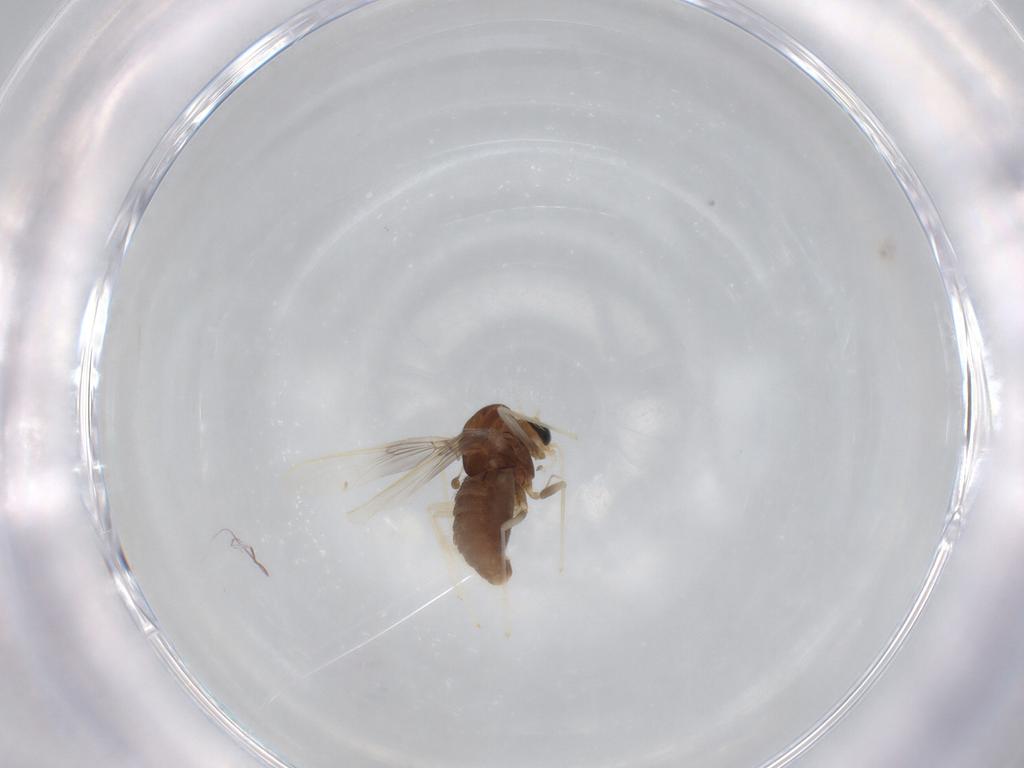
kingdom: Animalia
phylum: Arthropoda
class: Insecta
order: Diptera
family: Chironomidae
